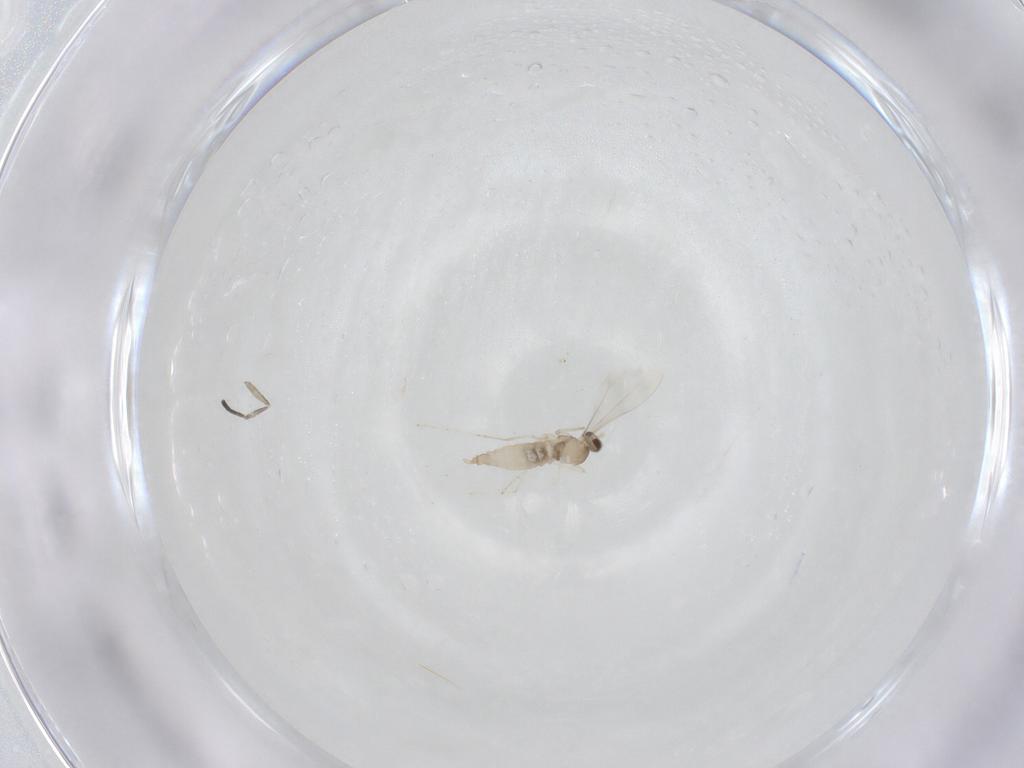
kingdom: Animalia
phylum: Arthropoda
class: Insecta
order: Diptera
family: Cecidomyiidae
